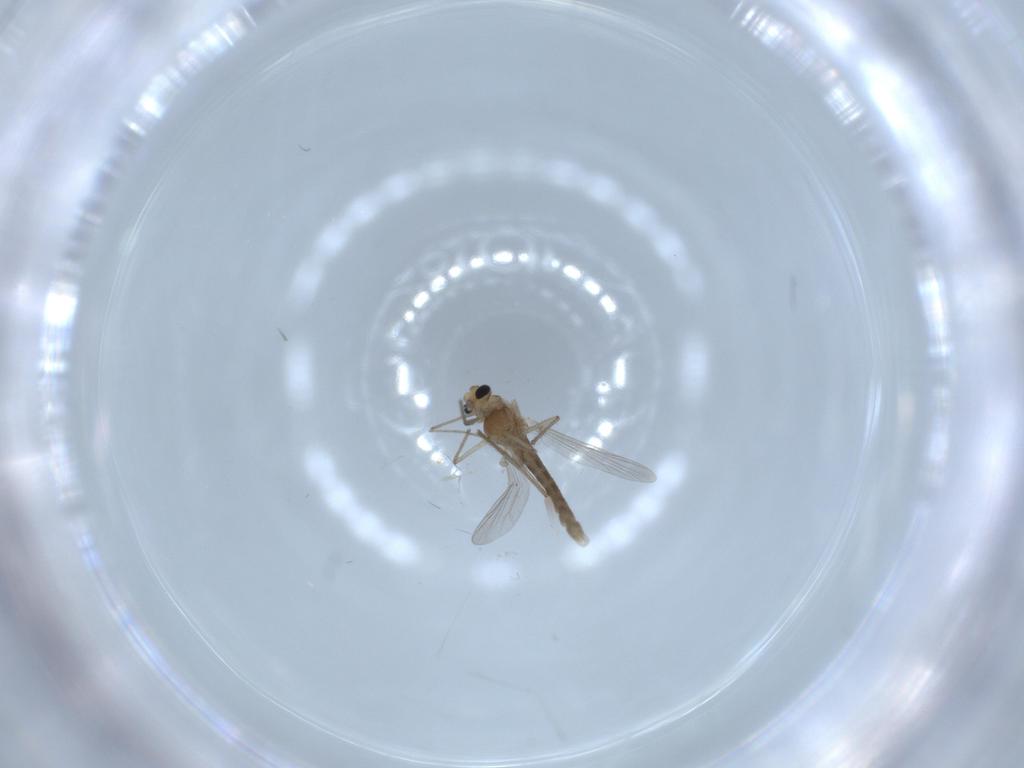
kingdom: Animalia
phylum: Arthropoda
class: Insecta
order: Diptera
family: Chironomidae
